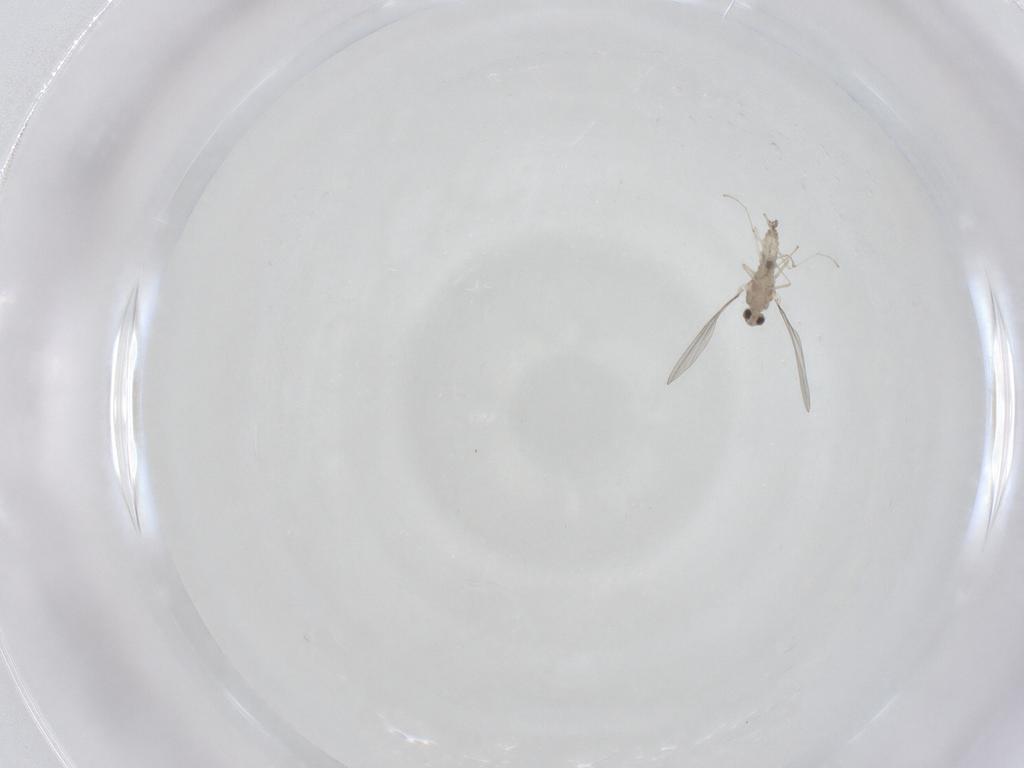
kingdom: Animalia
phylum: Arthropoda
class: Insecta
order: Diptera
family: Cecidomyiidae
